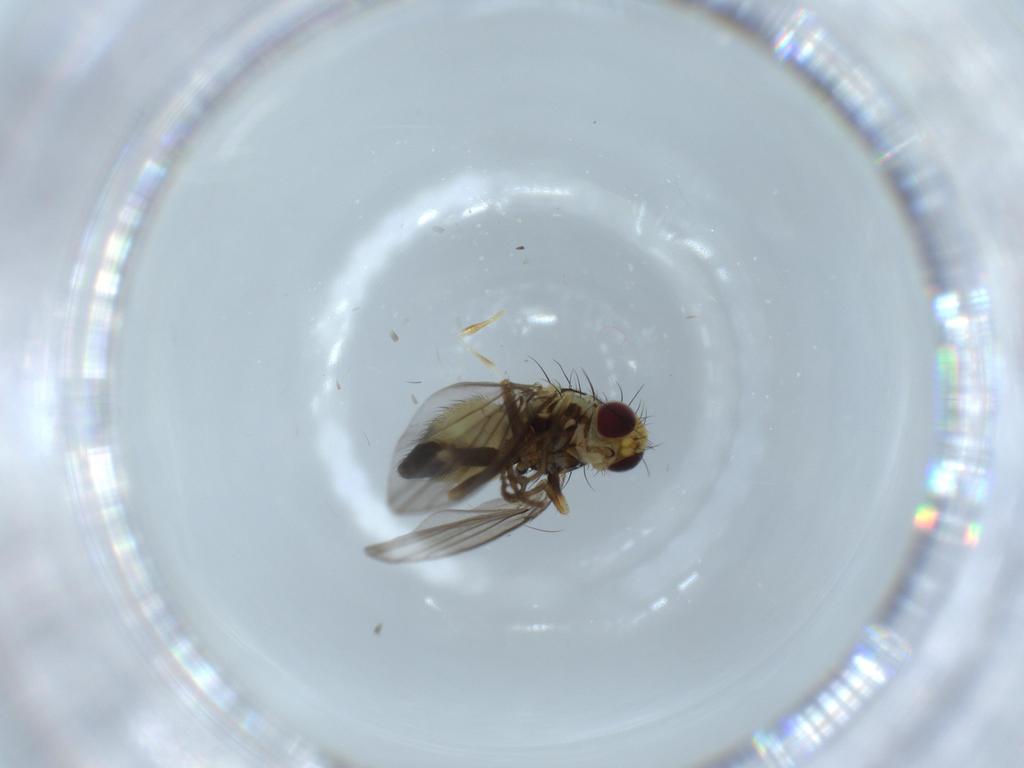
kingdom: Animalia
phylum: Arthropoda
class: Insecta
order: Diptera
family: Agromyzidae
